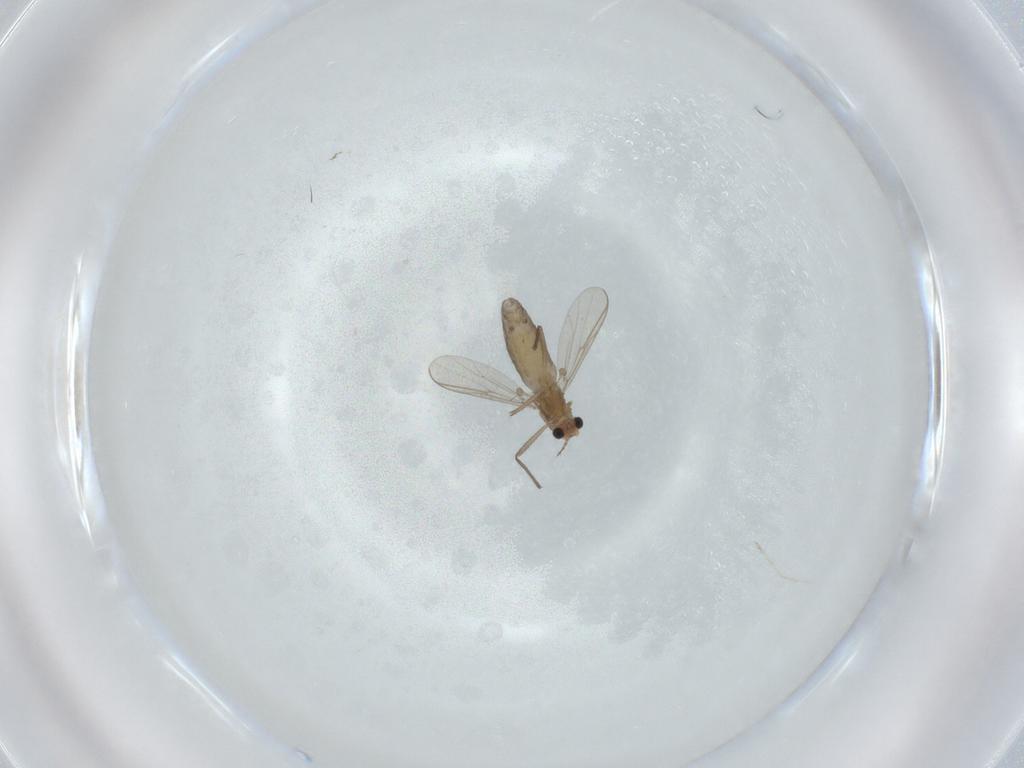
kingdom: Animalia
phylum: Arthropoda
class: Insecta
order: Diptera
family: Chironomidae
